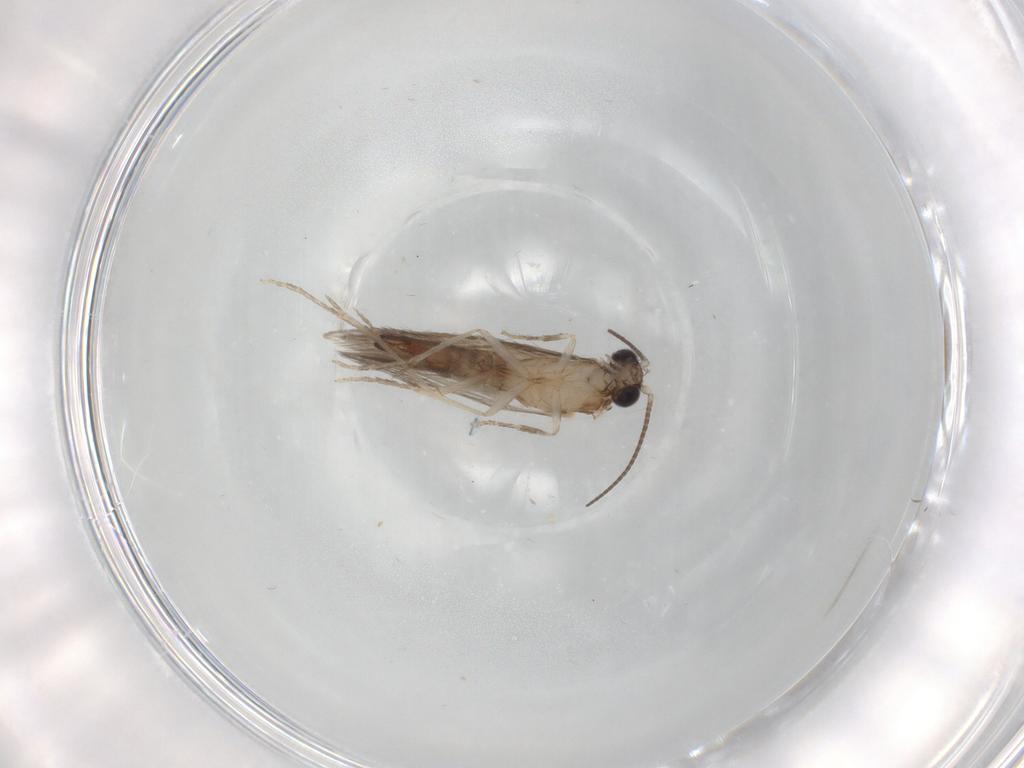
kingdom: Animalia
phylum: Arthropoda
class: Insecta
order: Trichoptera
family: Hydroptilidae
